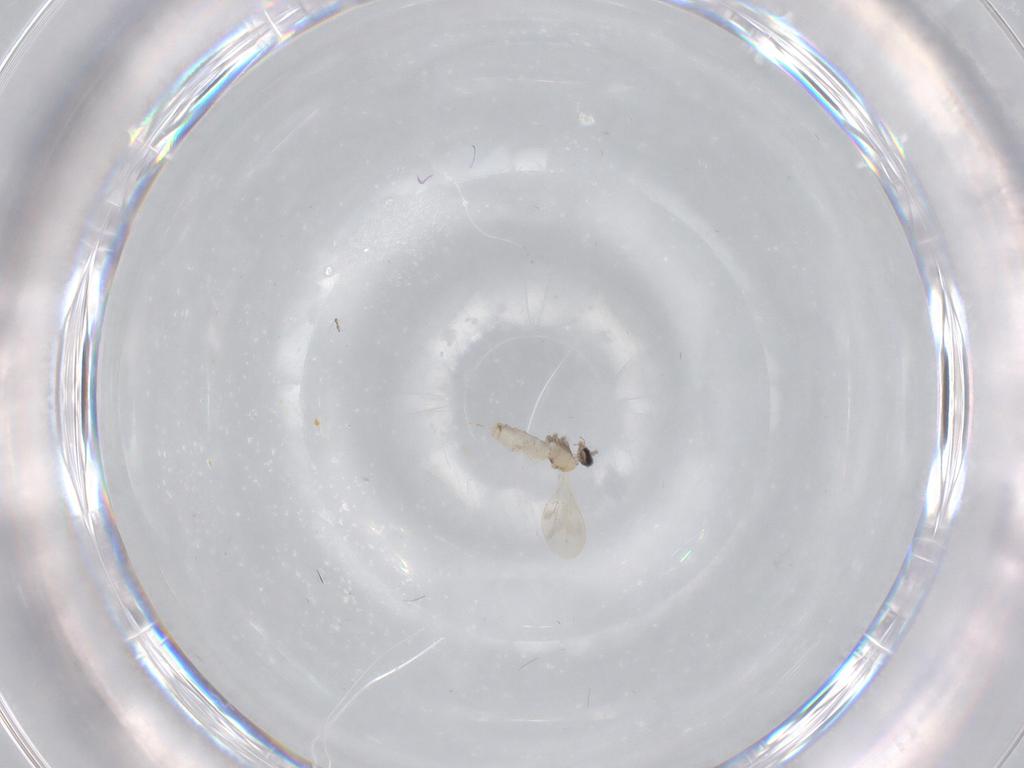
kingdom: Animalia
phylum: Arthropoda
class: Insecta
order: Diptera
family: Chironomidae
